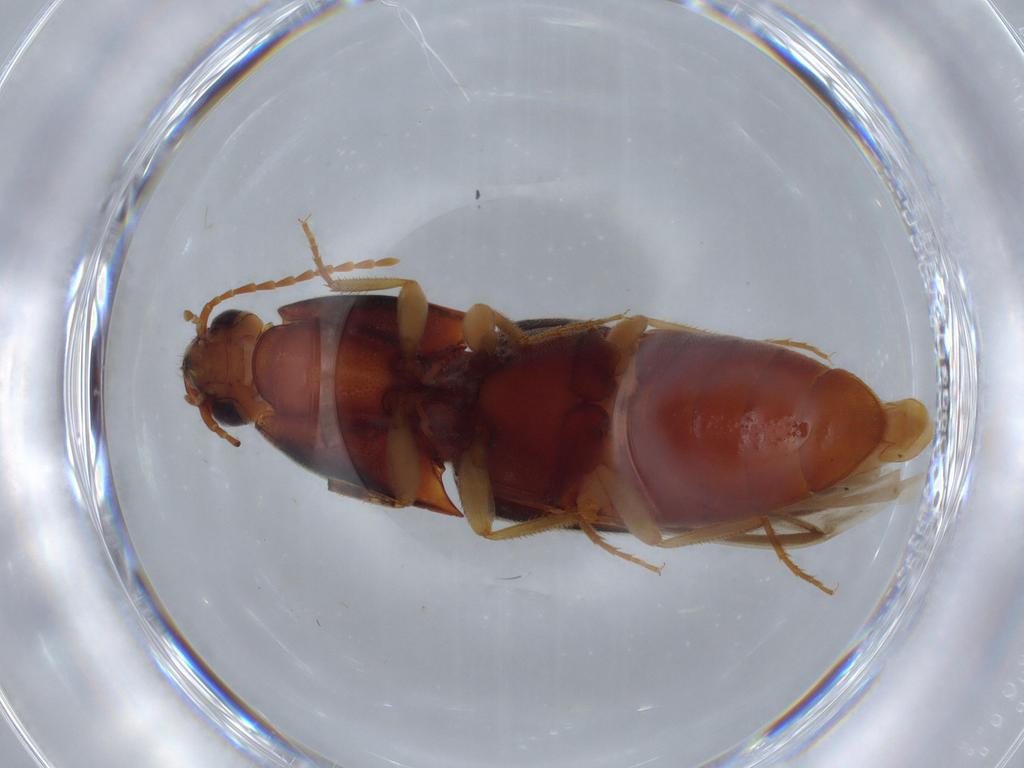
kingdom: Animalia
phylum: Arthropoda
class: Insecta
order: Coleoptera
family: Elateridae
